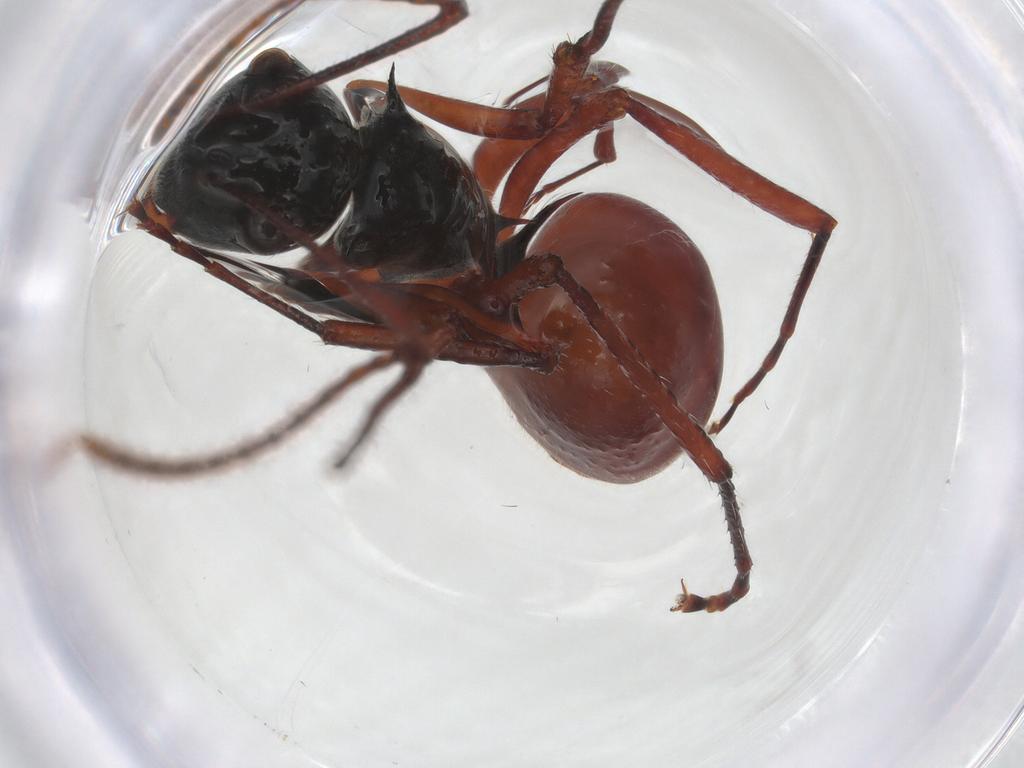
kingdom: Animalia
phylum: Arthropoda
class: Insecta
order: Hymenoptera
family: Formicidae
